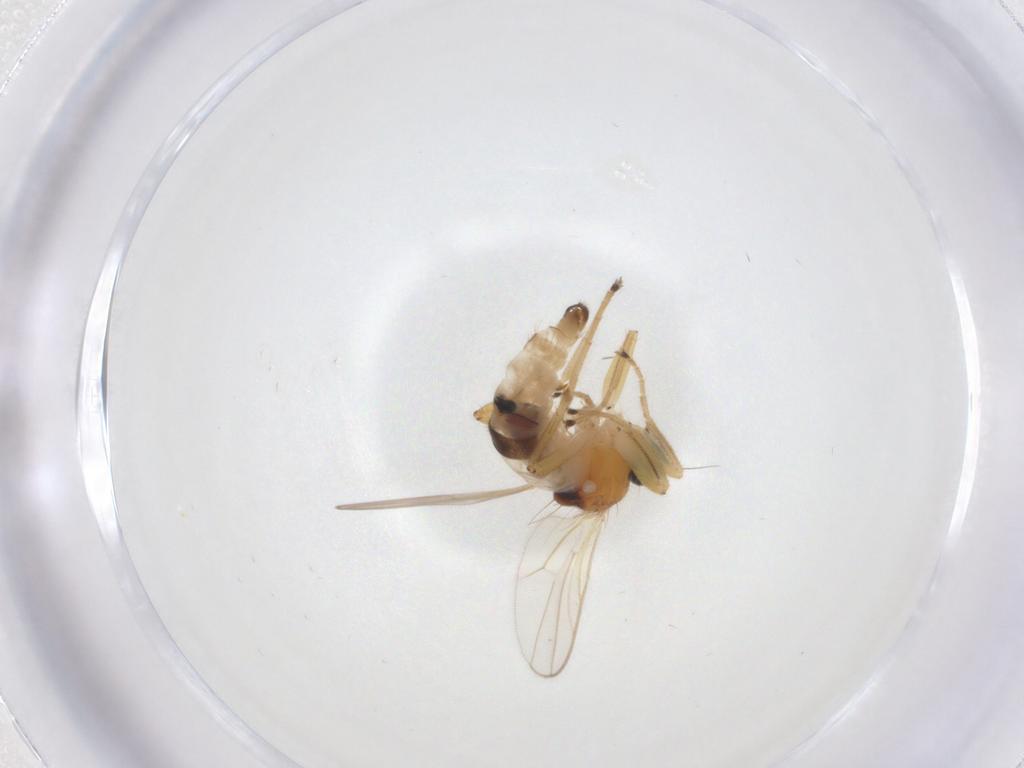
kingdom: Animalia
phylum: Arthropoda
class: Insecta
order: Diptera
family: Hybotidae
